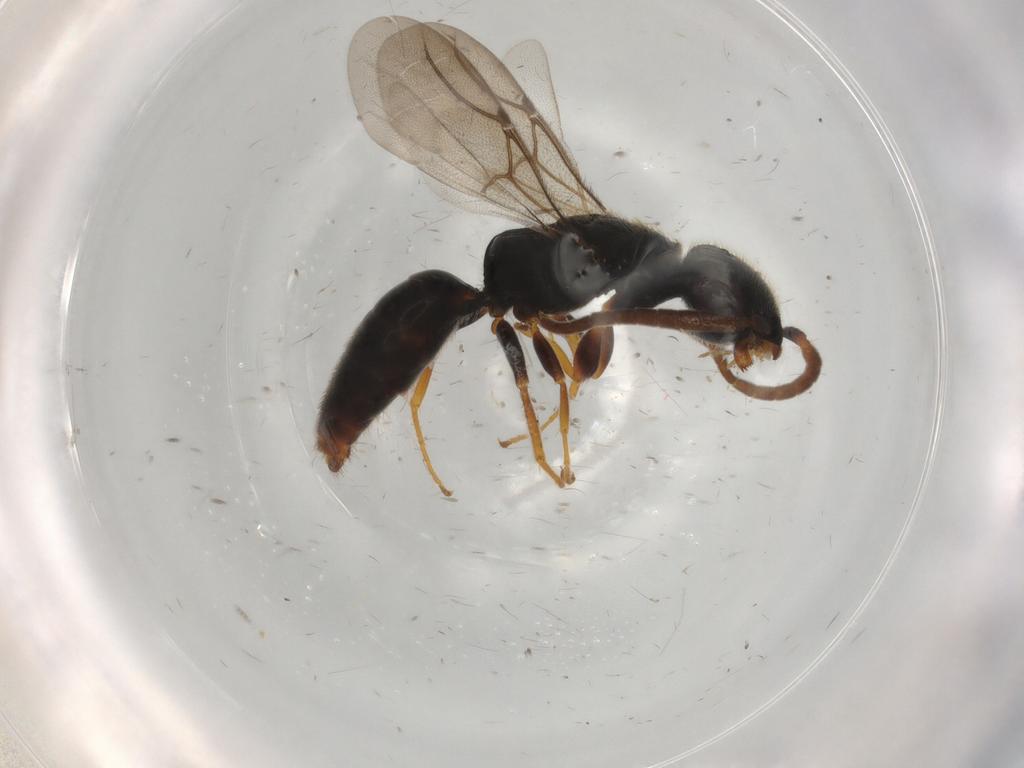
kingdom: Animalia
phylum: Arthropoda
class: Insecta
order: Hymenoptera
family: Bethylidae
